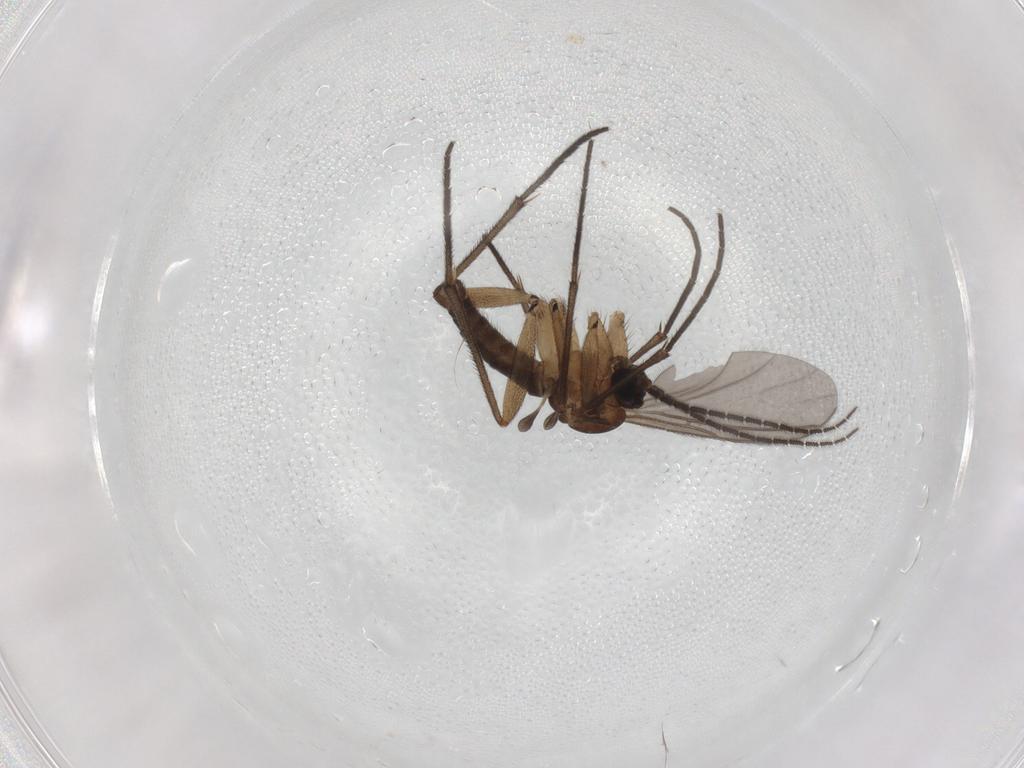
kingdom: Animalia
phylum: Arthropoda
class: Insecta
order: Diptera
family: Sciaridae
